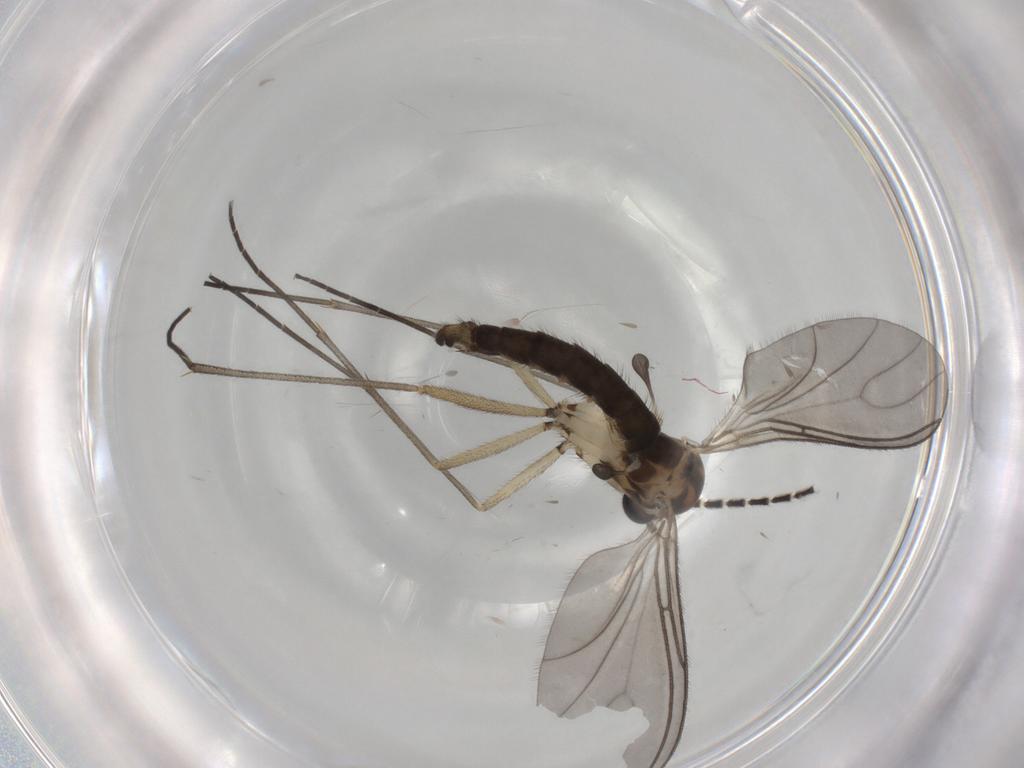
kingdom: Animalia
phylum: Arthropoda
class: Insecta
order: Diptera
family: Sciaridae
